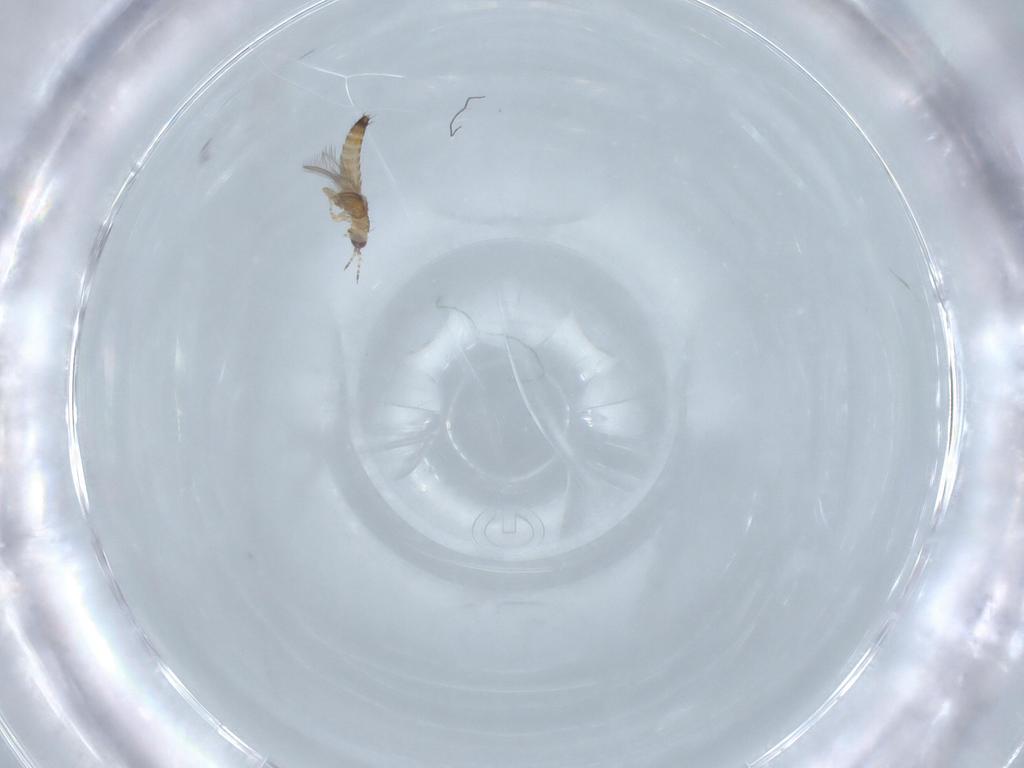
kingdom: Animalia
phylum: Arthropoda
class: Insecta
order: Thysanoptera
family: Thripidae
